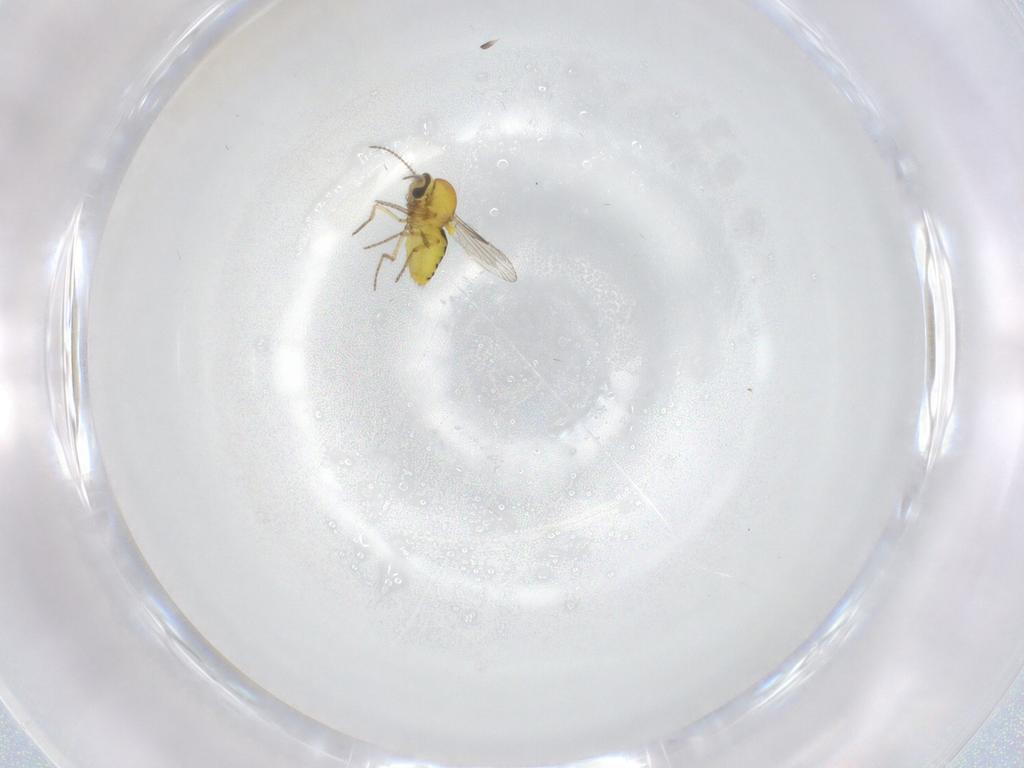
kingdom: Animalia
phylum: Arthropoda
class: Insecta
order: Diptera
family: Ceratopogonidae
